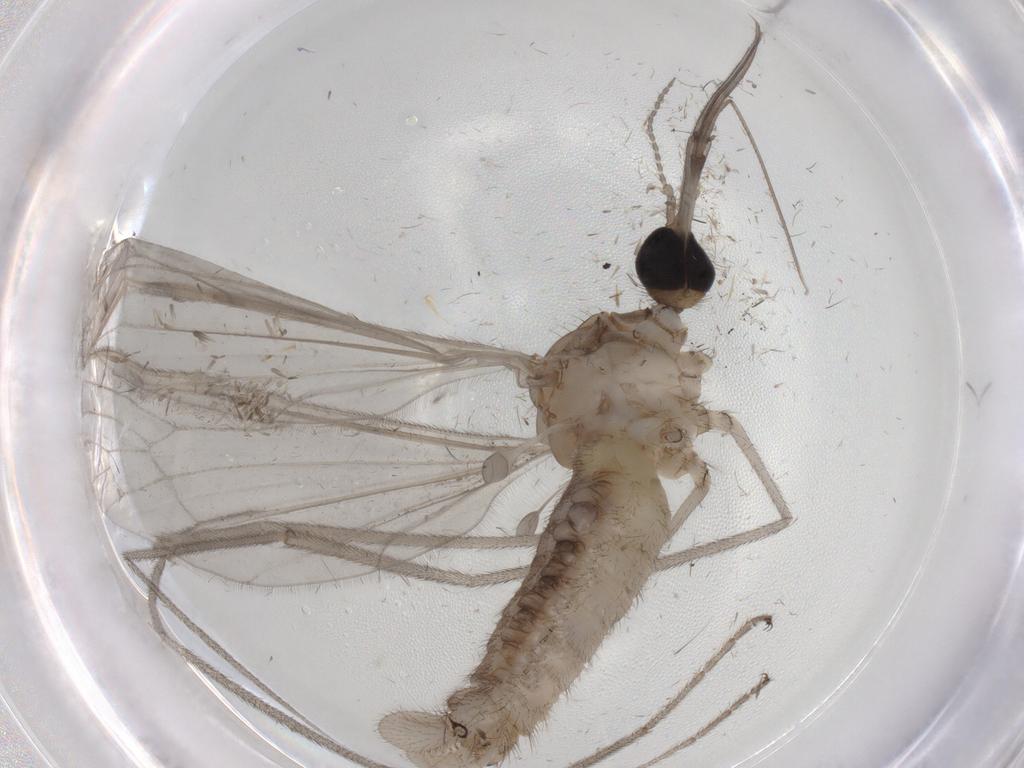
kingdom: Animalia
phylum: Arthropoda
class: Insecta
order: Diptera
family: Limoniidae
